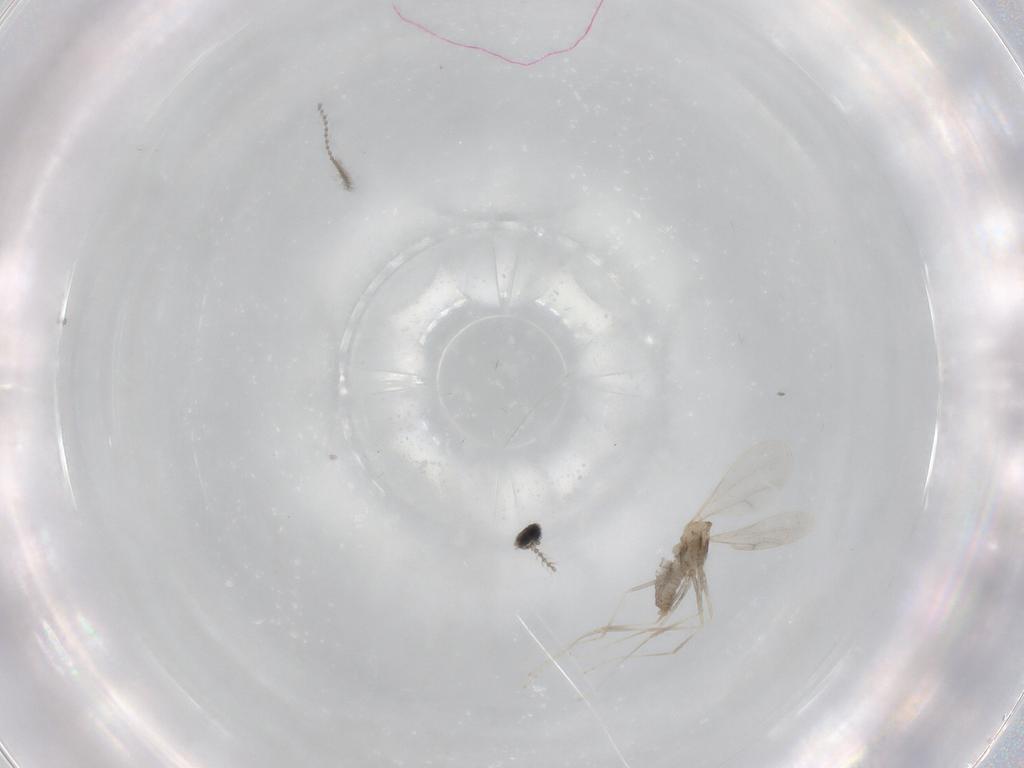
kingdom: Animalia
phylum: Arthropoda
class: Insecta
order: Diptera
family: Cecidomyiidae
